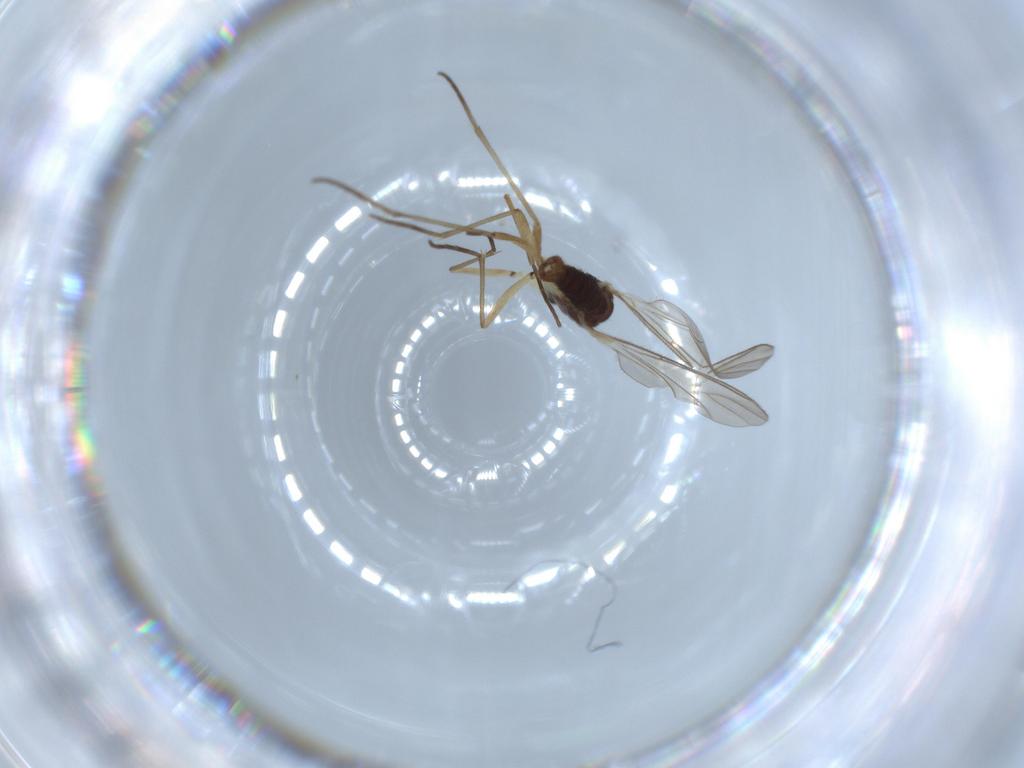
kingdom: Animalia
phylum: Arthropoda
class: Insecta
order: Diptera
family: Sciaridae
